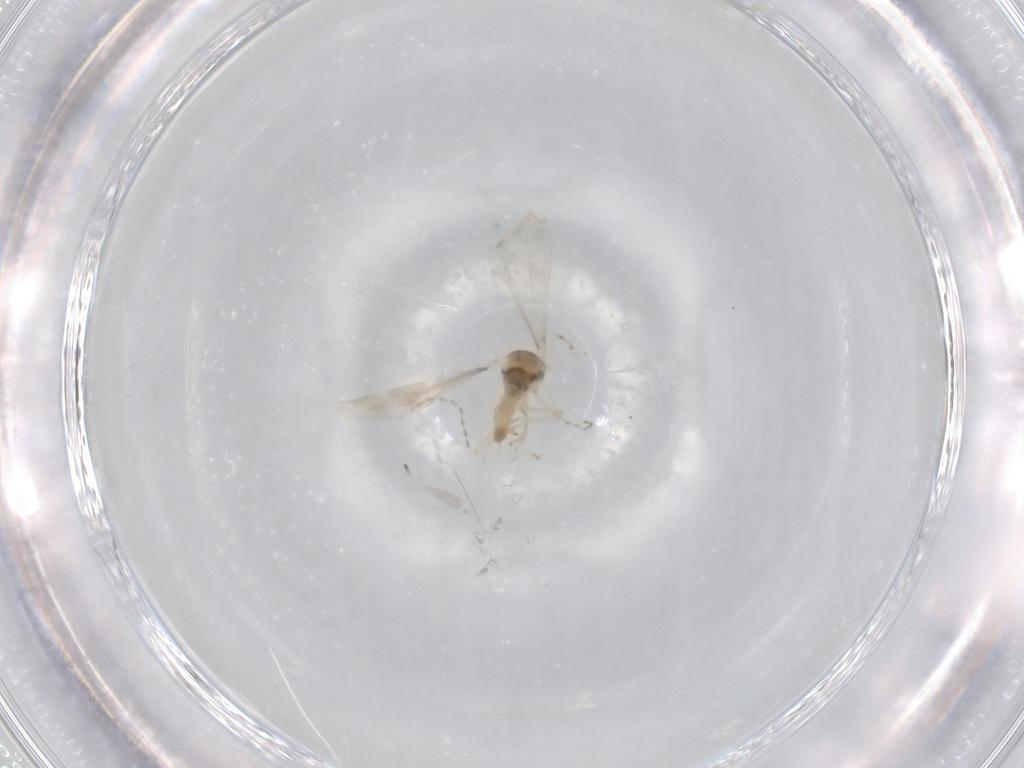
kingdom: Animalia
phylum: Arthropoda
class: Insecta
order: Diptera
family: Cecidomyiidae
